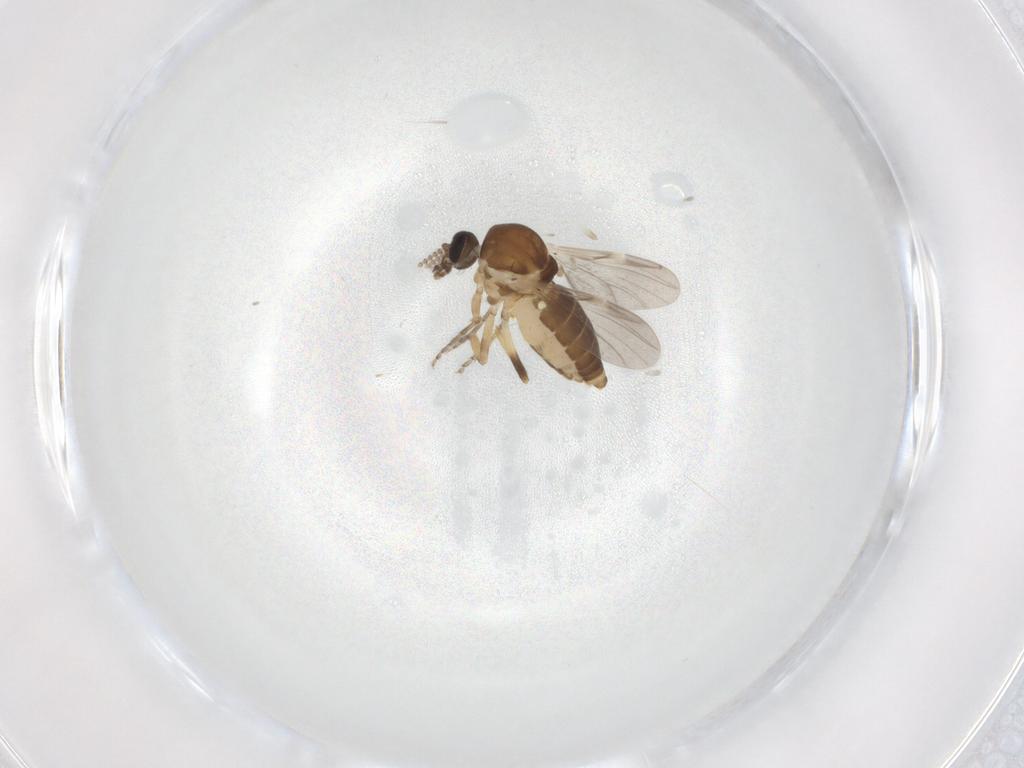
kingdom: Animalia
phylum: Arthropoda
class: Insecta
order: Diptera
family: Ceratopogonidae
